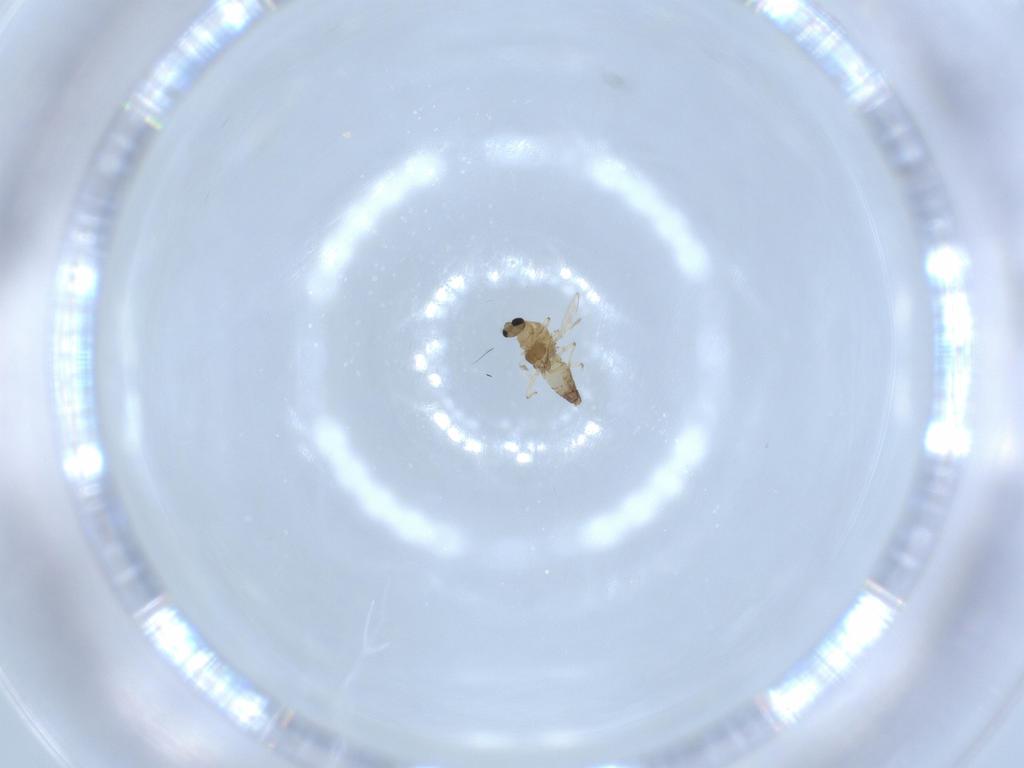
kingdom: Animalia
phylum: Arthropoda
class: Insecta
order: Diptera
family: Chironomidae
